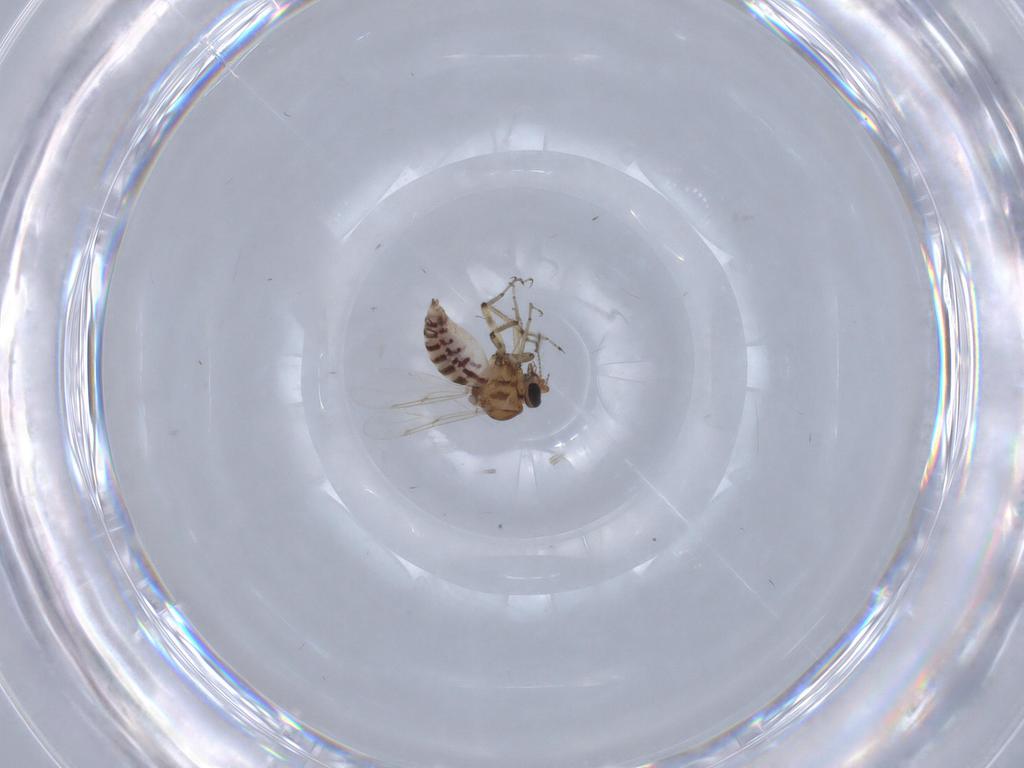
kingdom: Animalia
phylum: Arthropoda
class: Insecta
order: Diptera
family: Ceratopogonidae
